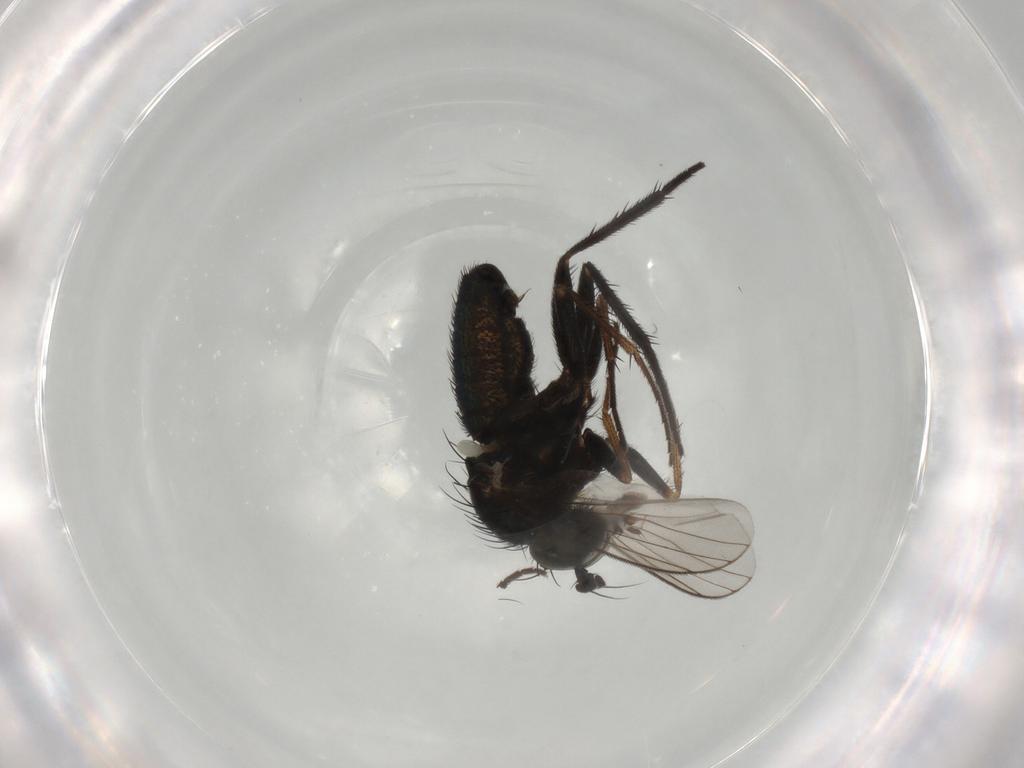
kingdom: Animalia
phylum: Arthropoda
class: Insecta
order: Diptera
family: Dolichopodidae
